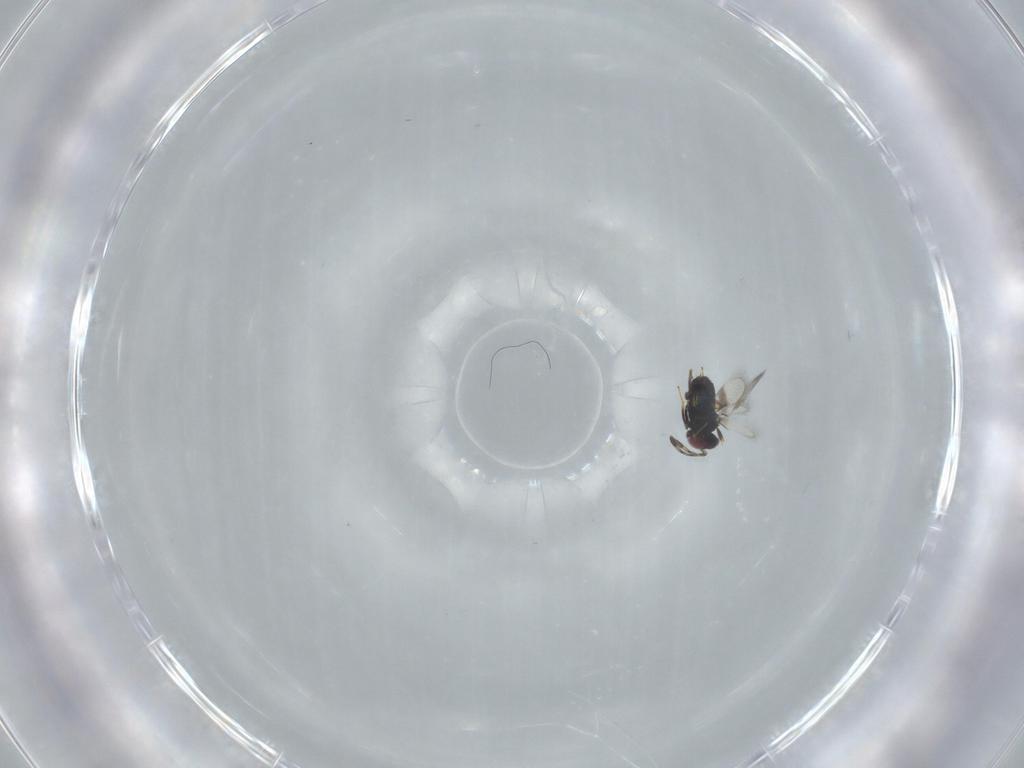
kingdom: Animalia
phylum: Arthropoda
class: Insecta
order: Hymenoptera
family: Azotidae
